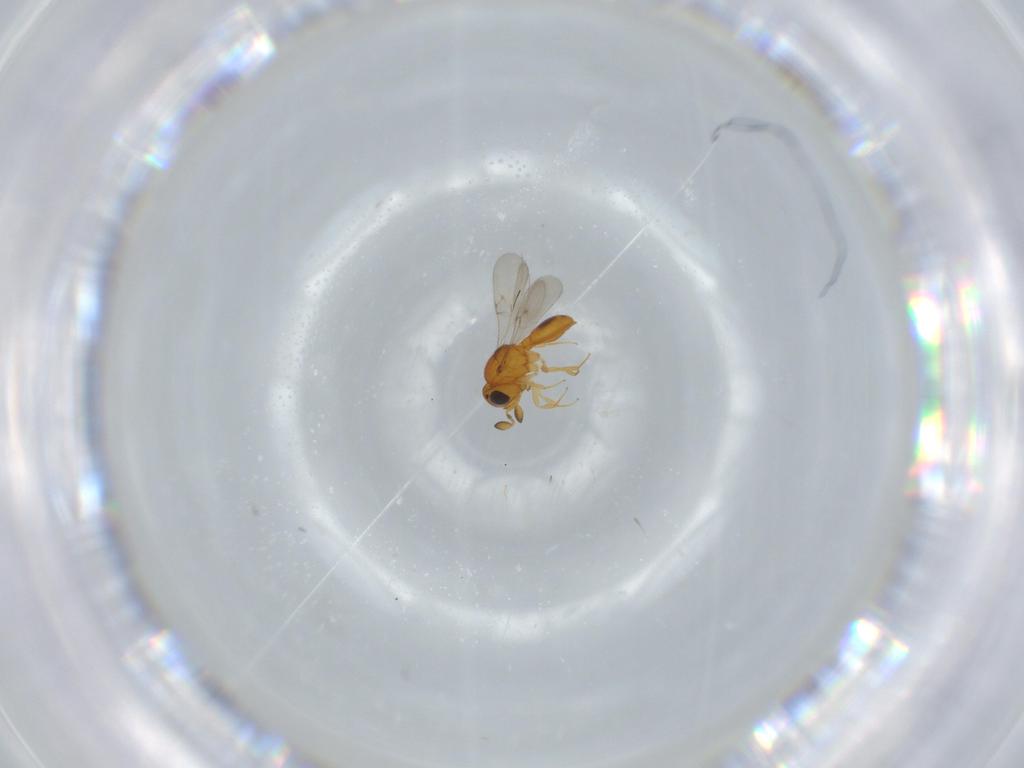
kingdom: Animalia
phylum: Arthropoda
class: Insecta
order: Hymenoptera
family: Scelionidae
